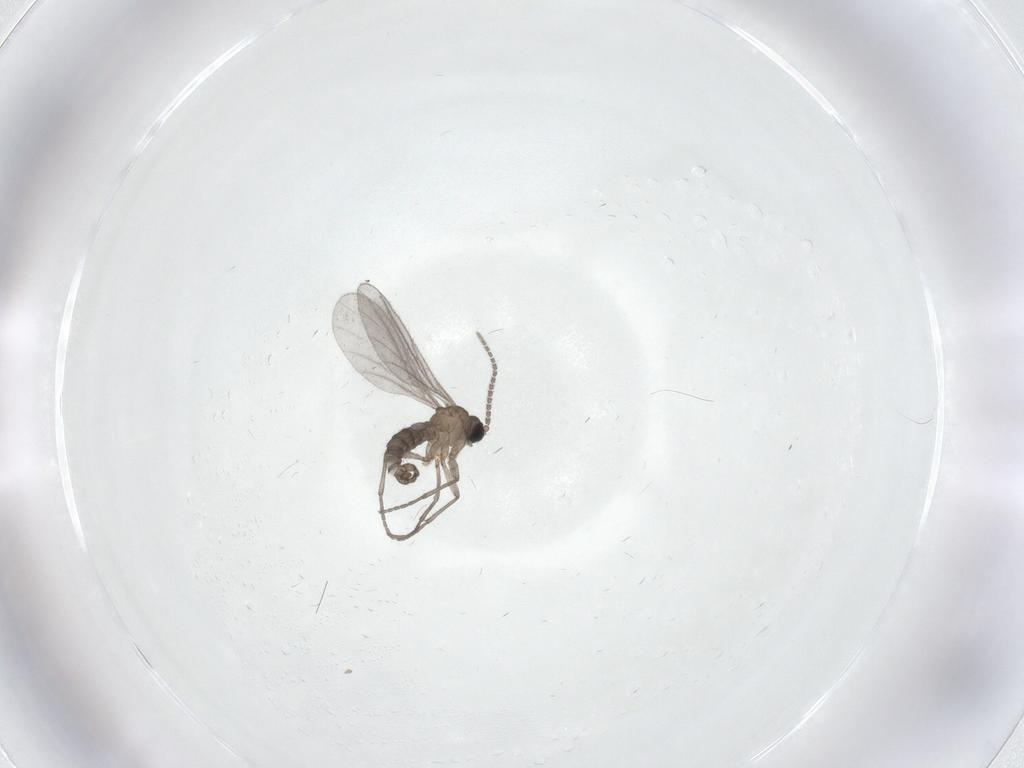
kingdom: Animalia
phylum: Arthropoda
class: Insecta
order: Diptera
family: Sciaridae
